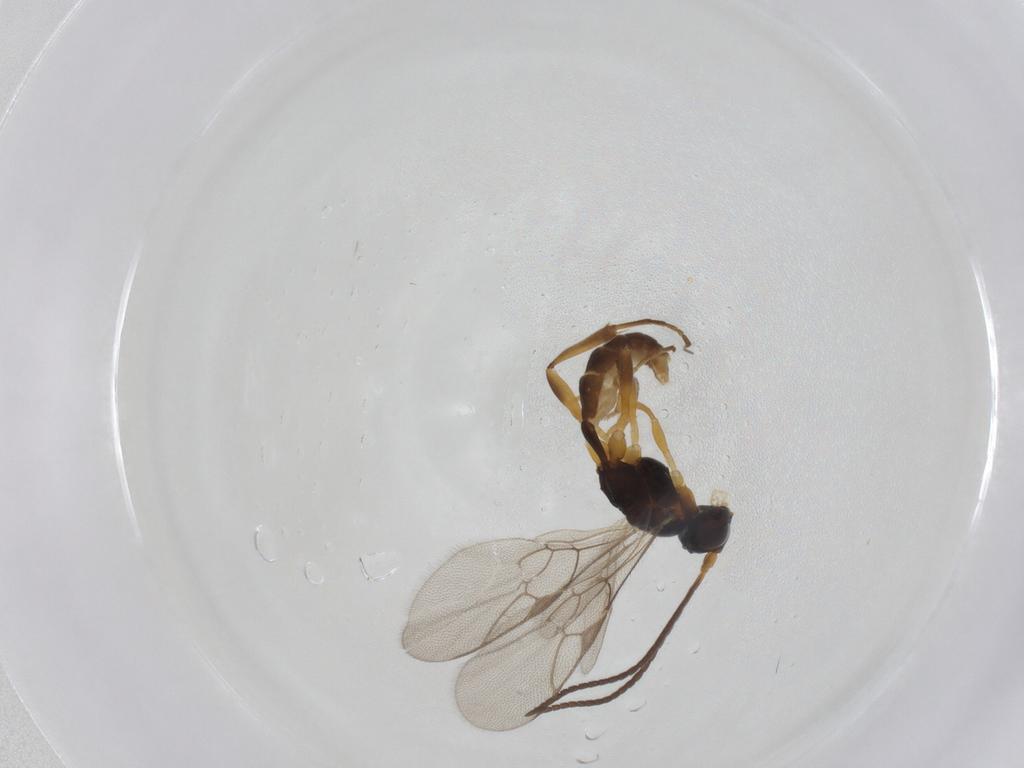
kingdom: Animalia
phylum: Arthropoda
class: Insecta
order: Hymenoptera
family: Ichneumonidae
